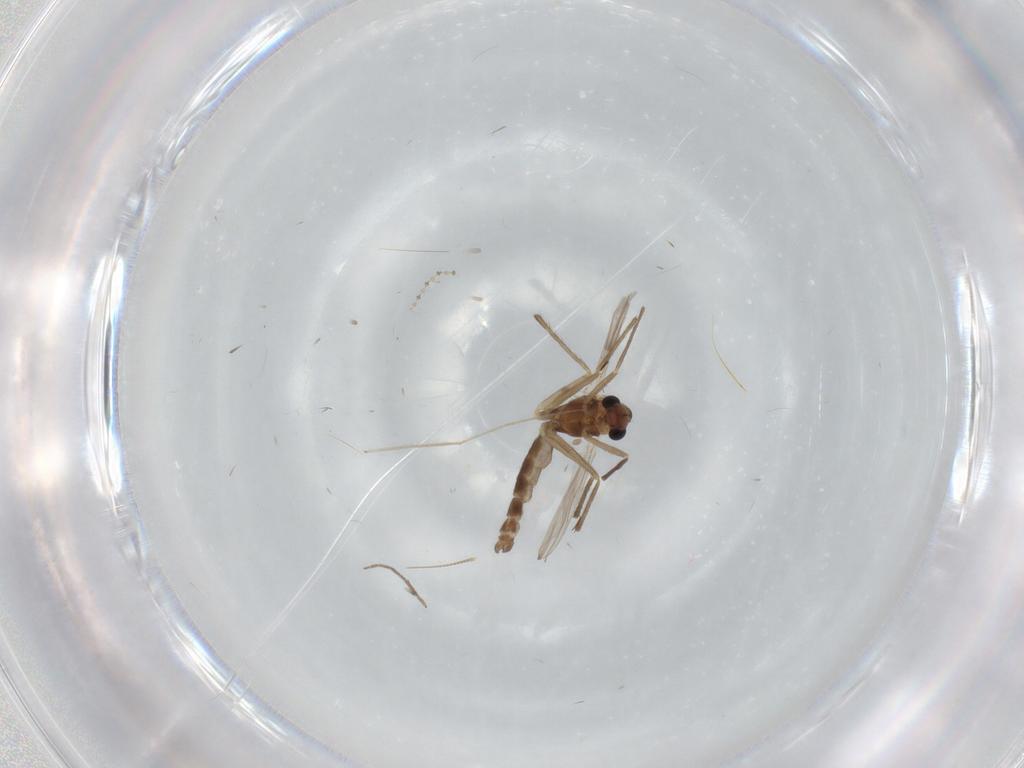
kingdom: Animalia
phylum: Arthropoda
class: Insecta
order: Diptera
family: Chironomidae
